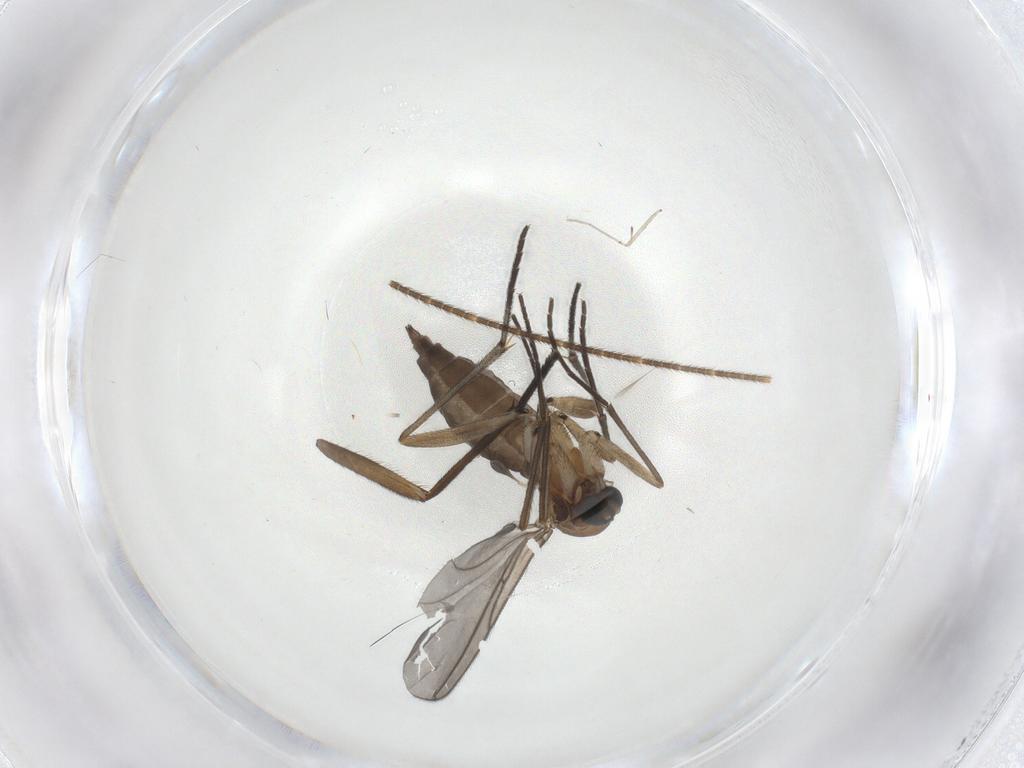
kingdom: Animalia
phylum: Arthropoda
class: Insecta
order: Diptera
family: Sciaridae
